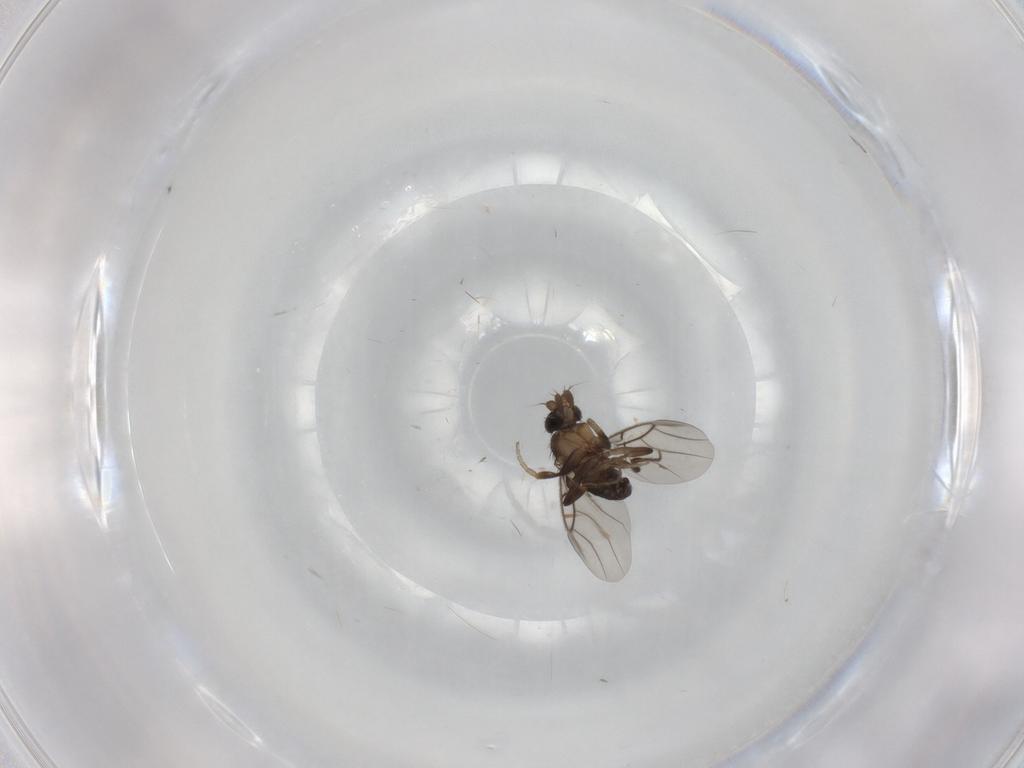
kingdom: Animalia
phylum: Arthropoda
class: Insecta
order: Diptera
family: Phoridae
